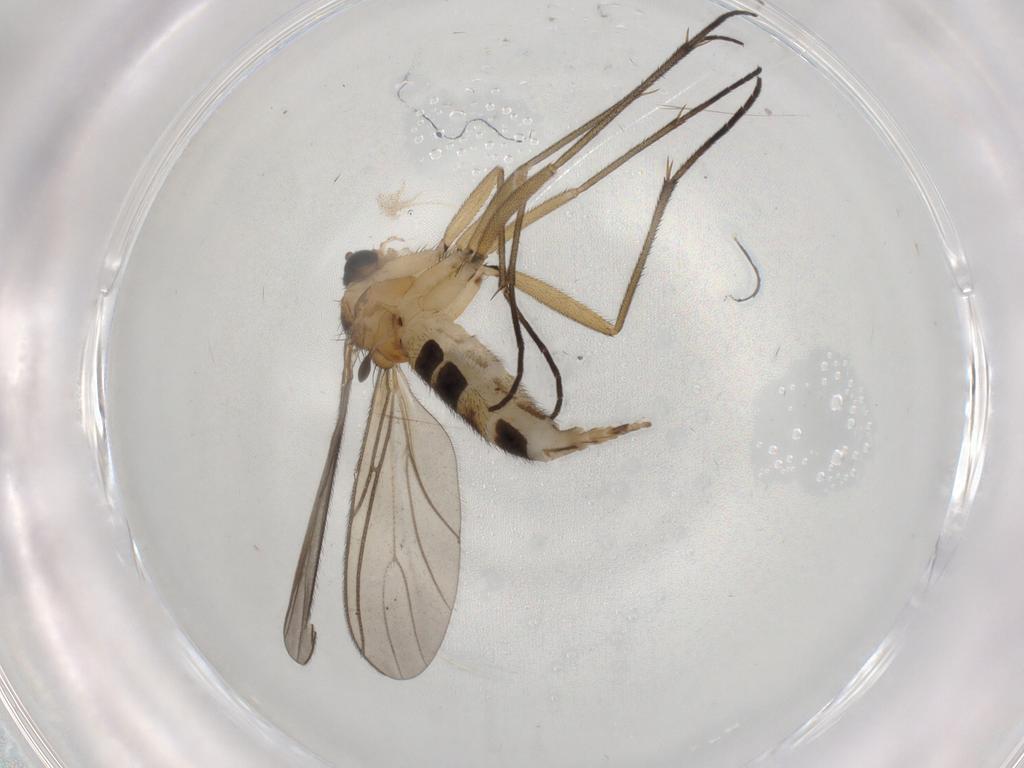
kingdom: Animalia
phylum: Arthropoda
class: Insecta
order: Diptera
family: Sciaridae
